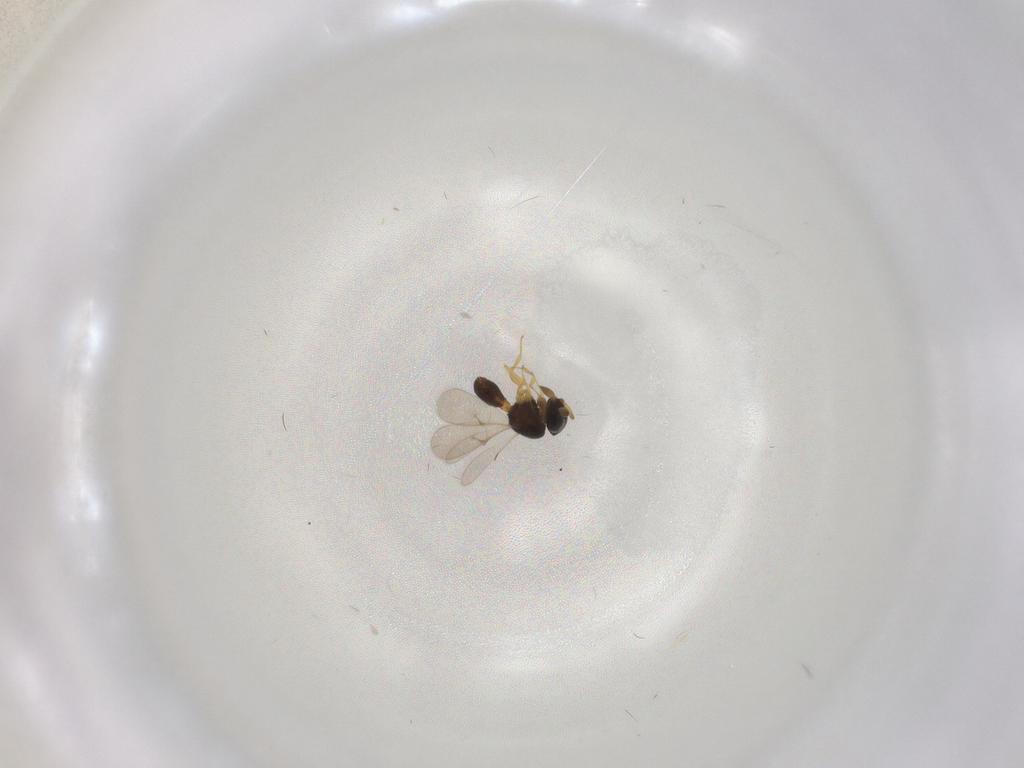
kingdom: Animalia
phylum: Arthropoda
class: Insecta
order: Hymenoptera
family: Scelionidae
